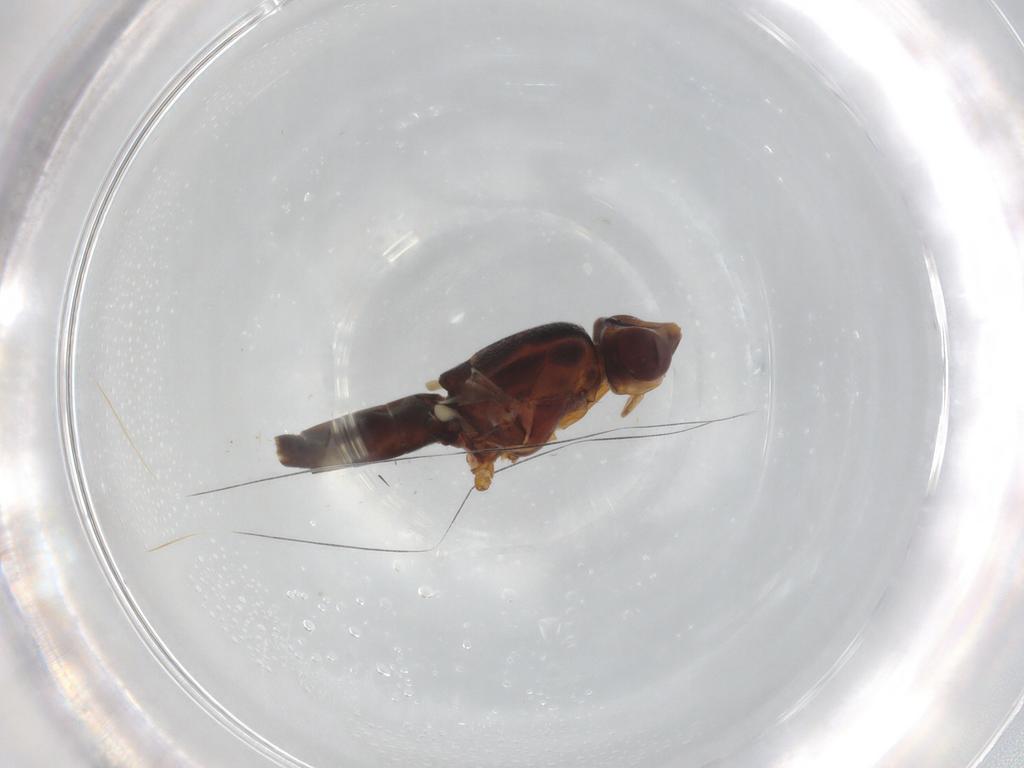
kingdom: Animalia
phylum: Arthropoda
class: Insecta
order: Diptera
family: Chloropidae
